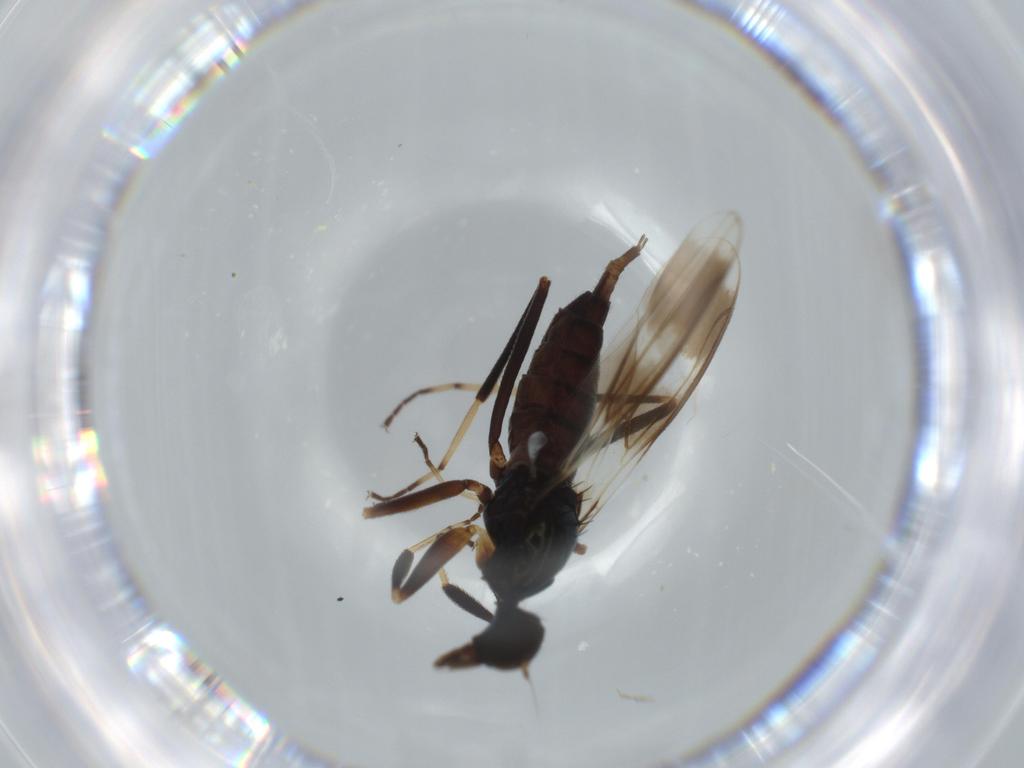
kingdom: Animalia
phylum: Arthropoda
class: Insecta
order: Diptera
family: Hybotidae
